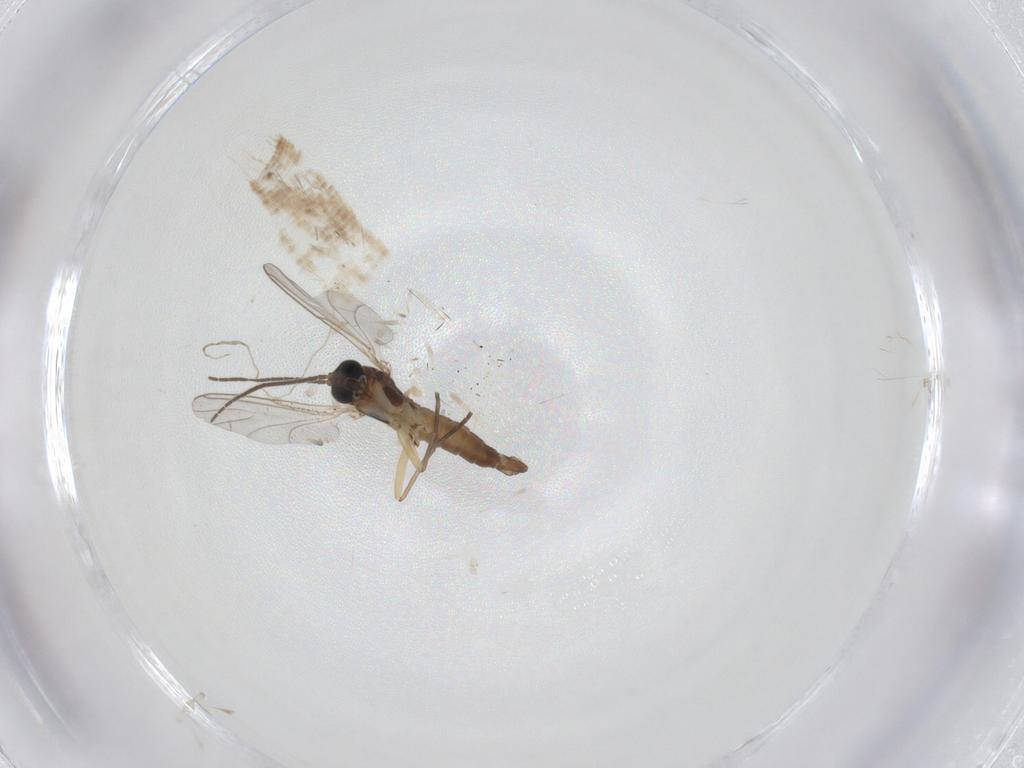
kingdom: Animalia
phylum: Arthropoda
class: Insecta
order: Diptera
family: Sciaridae
